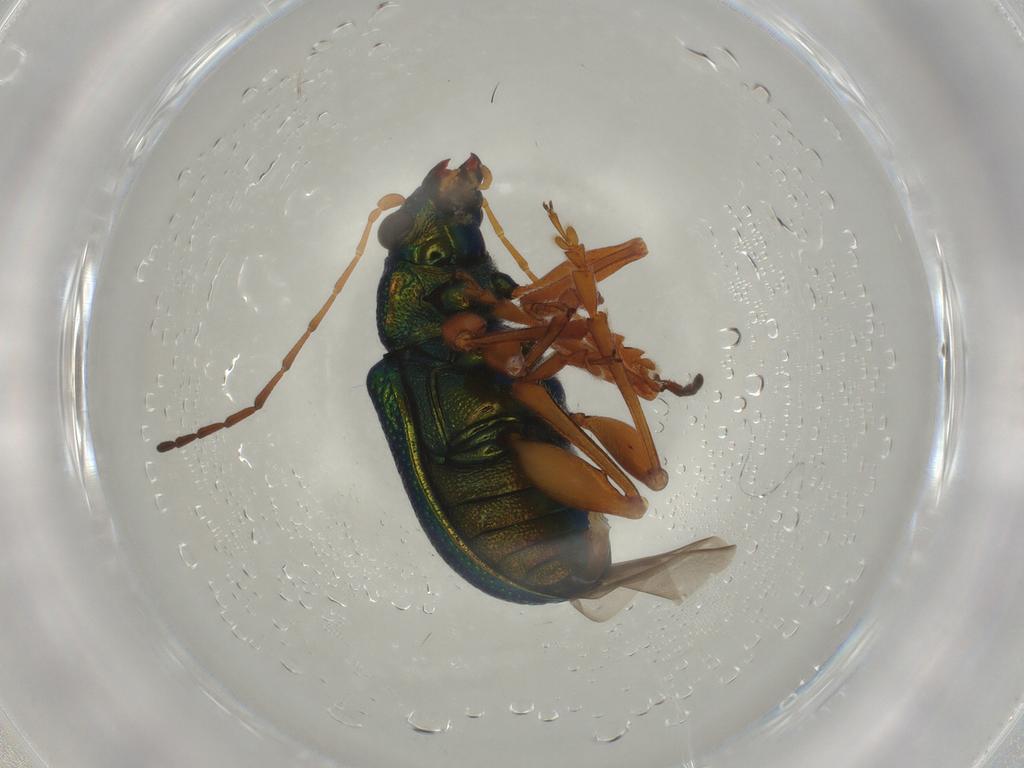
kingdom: Animalia
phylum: Arthropoda
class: Insecta
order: Coleoptera
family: Chrysomelidae
